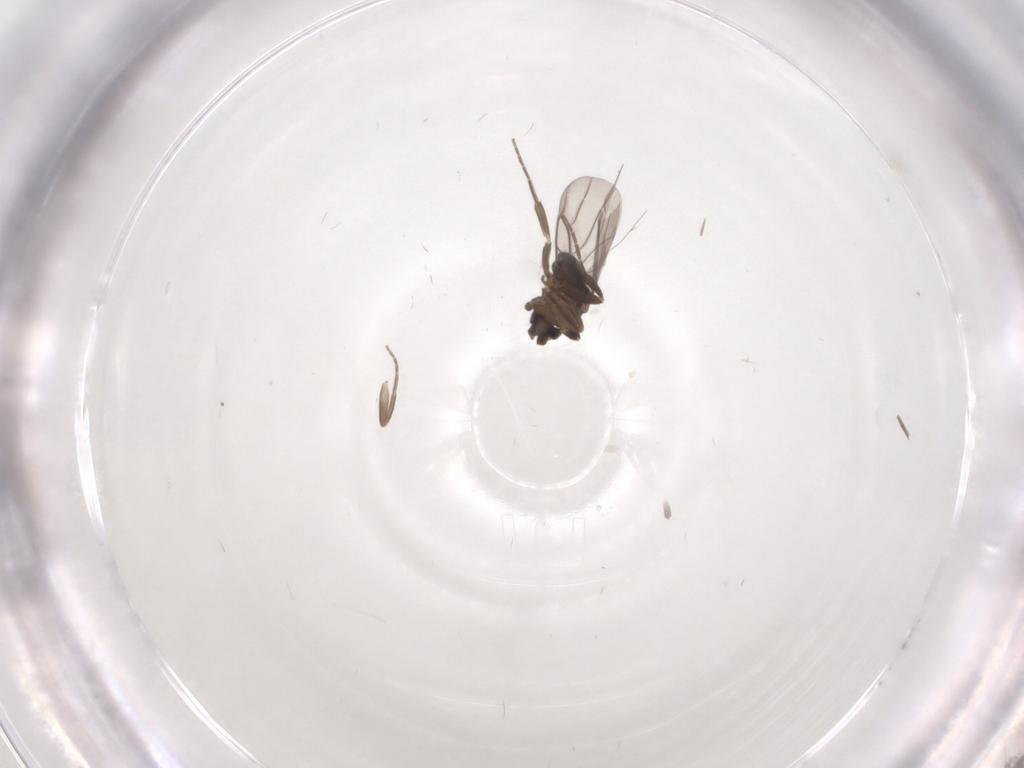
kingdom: Animalia
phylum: Arthropoda
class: Insecta
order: Diptera
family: Phoridae
